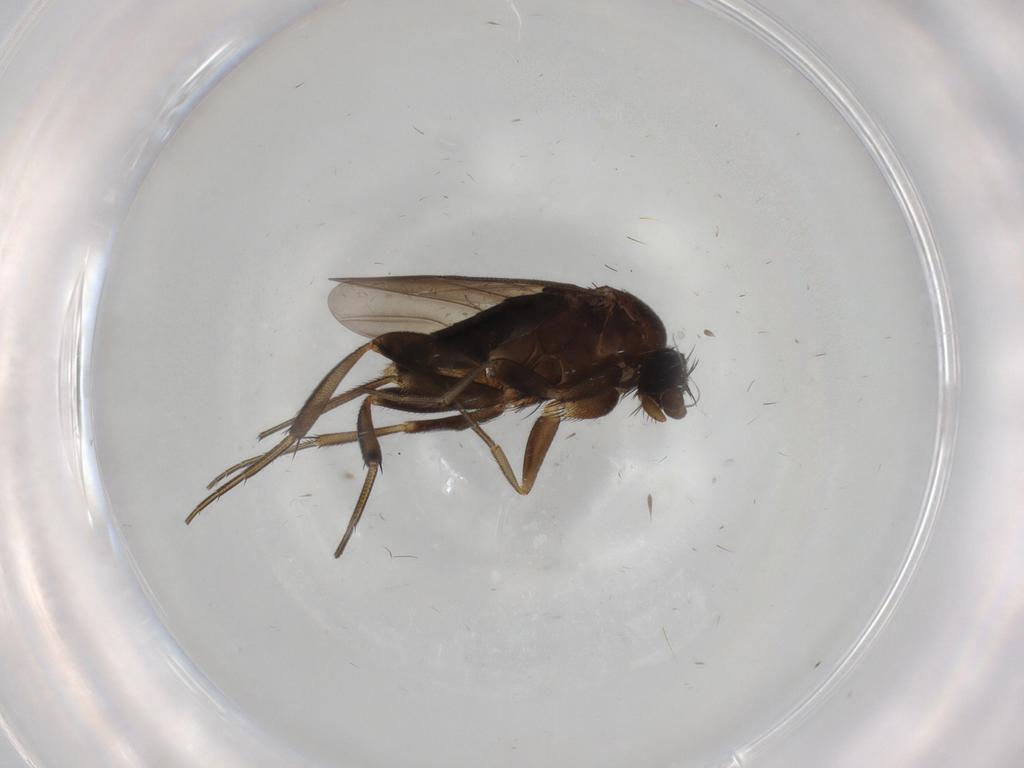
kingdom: Animalia
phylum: Arthropoda
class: Insecta
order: Diptera
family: Phoridae
